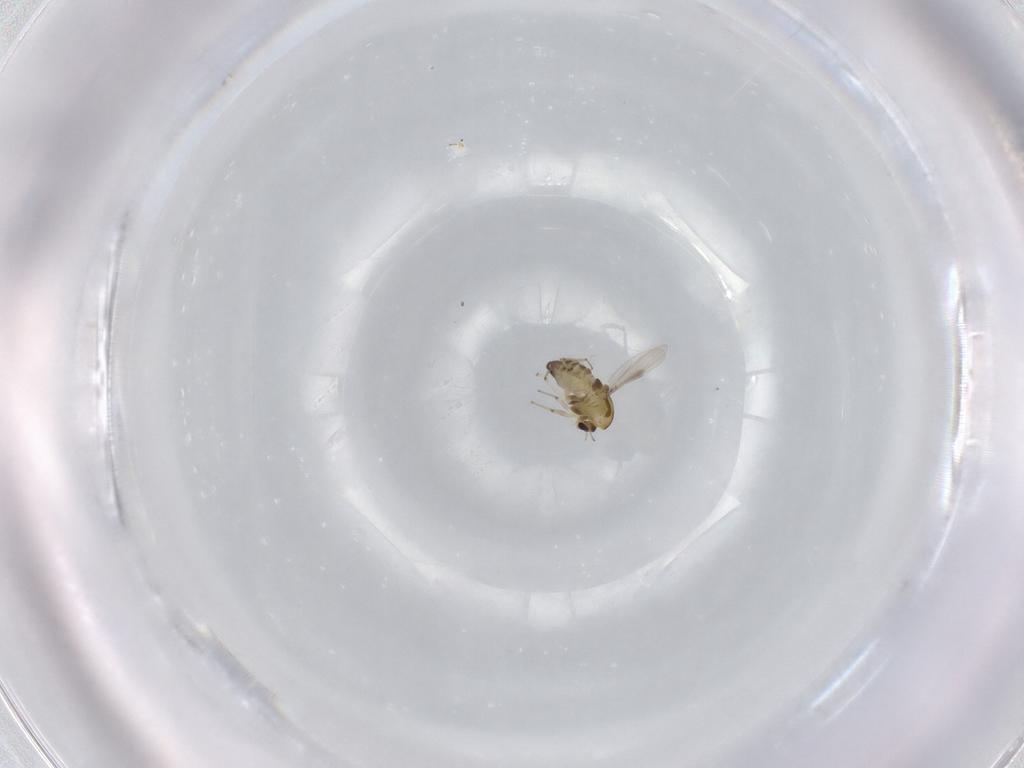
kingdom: Animalia
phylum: Arthropoda
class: Insecta
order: Diptera
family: Chironomidae
